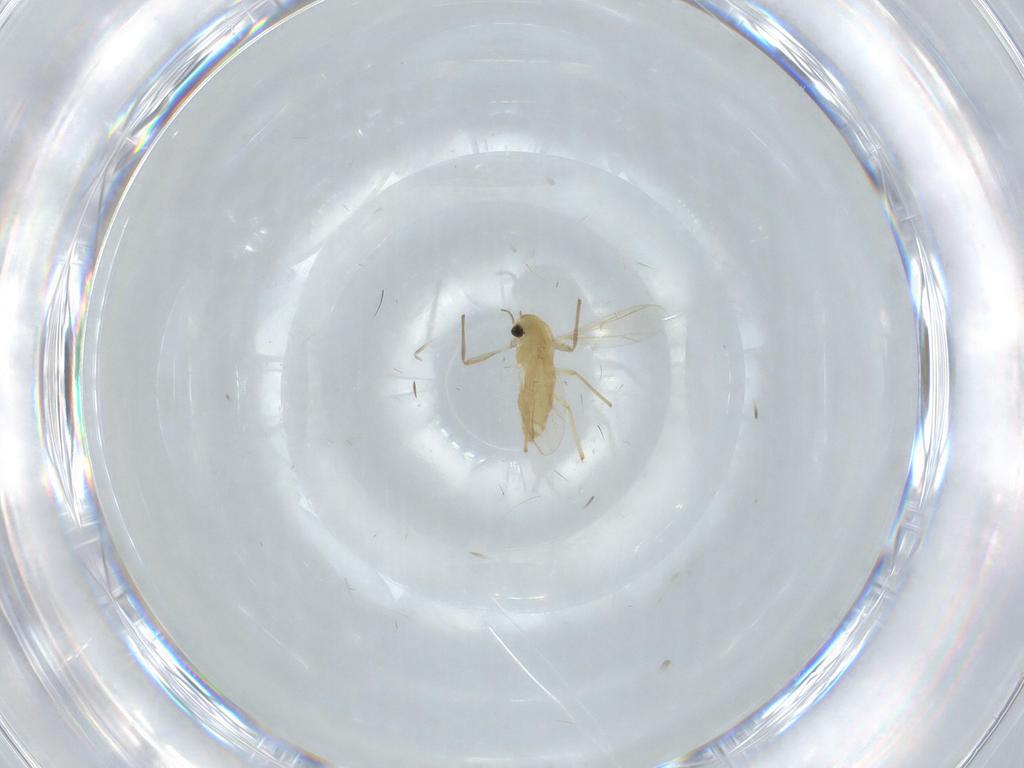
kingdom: Animalia
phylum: Arthropoda
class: Insecta
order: Diptera
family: Chironomidae
